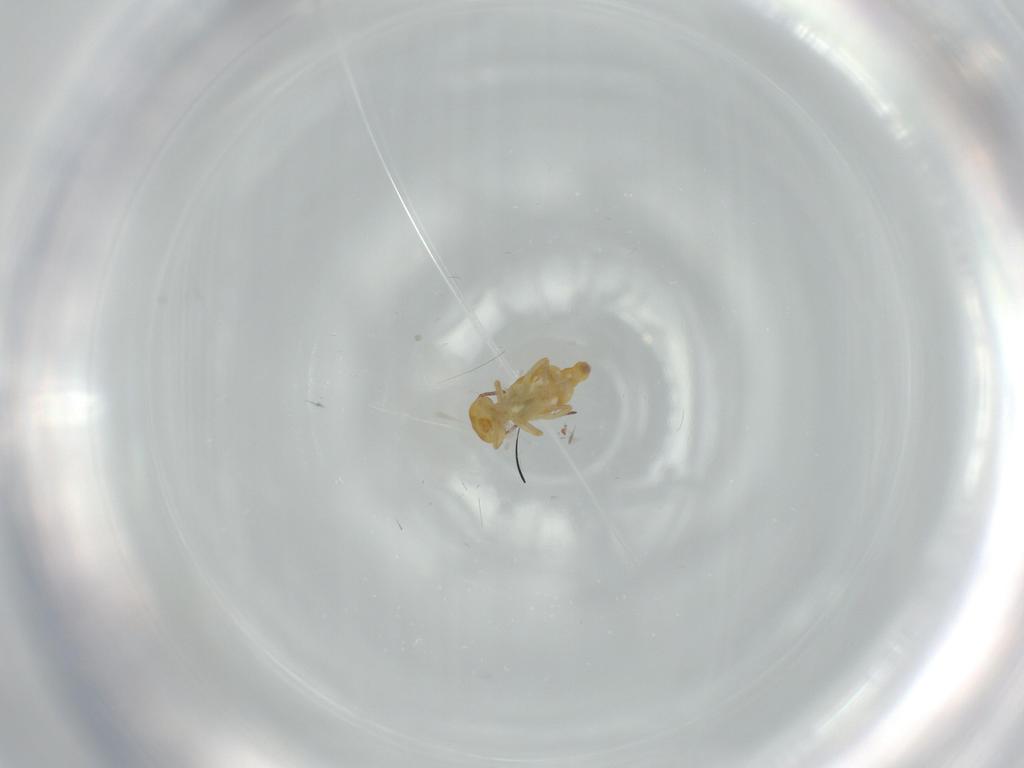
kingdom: Animalia
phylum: Arthropoda
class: Collembola
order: Symphypleona
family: Bourletiellidae
